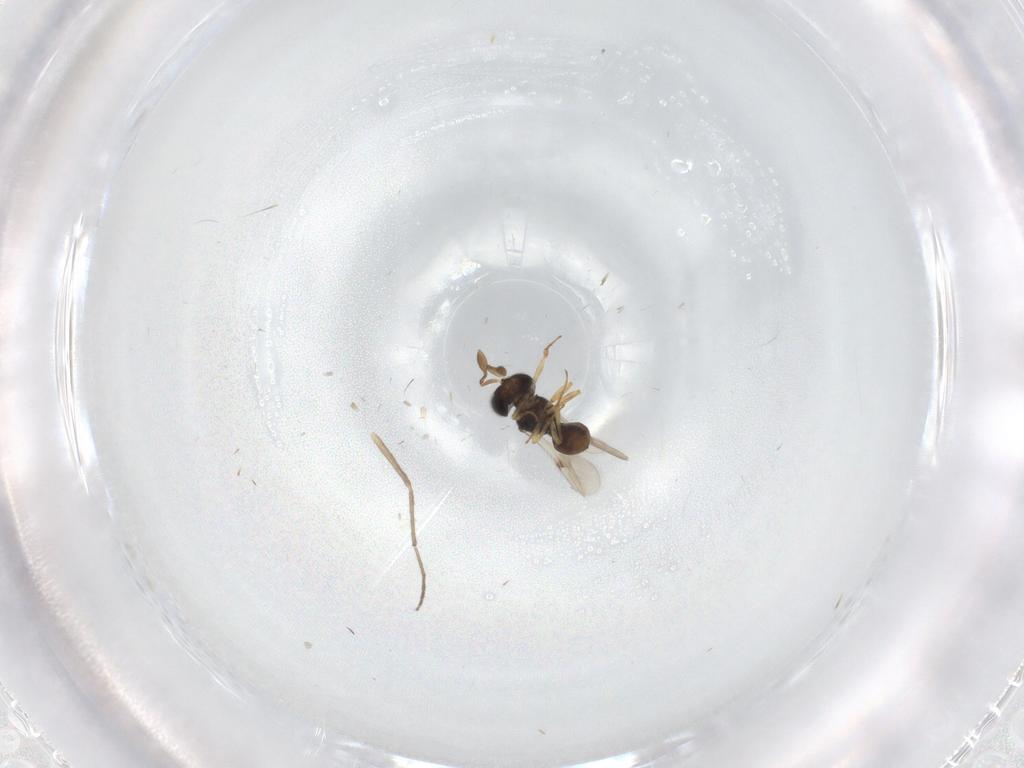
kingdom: Animalia
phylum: Arthropoda
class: Insecta
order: Hymenoptera
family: Scelionidae
